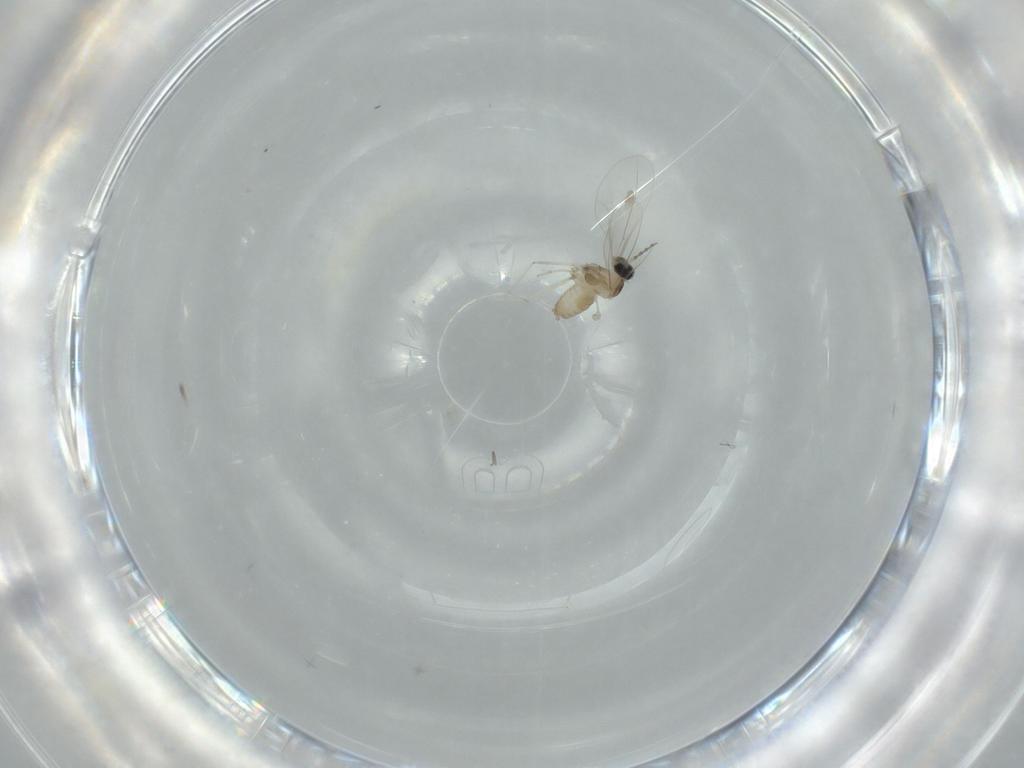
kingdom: Animalia
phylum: Arthropoda
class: Insecta
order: Diptera
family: Milichiidae
